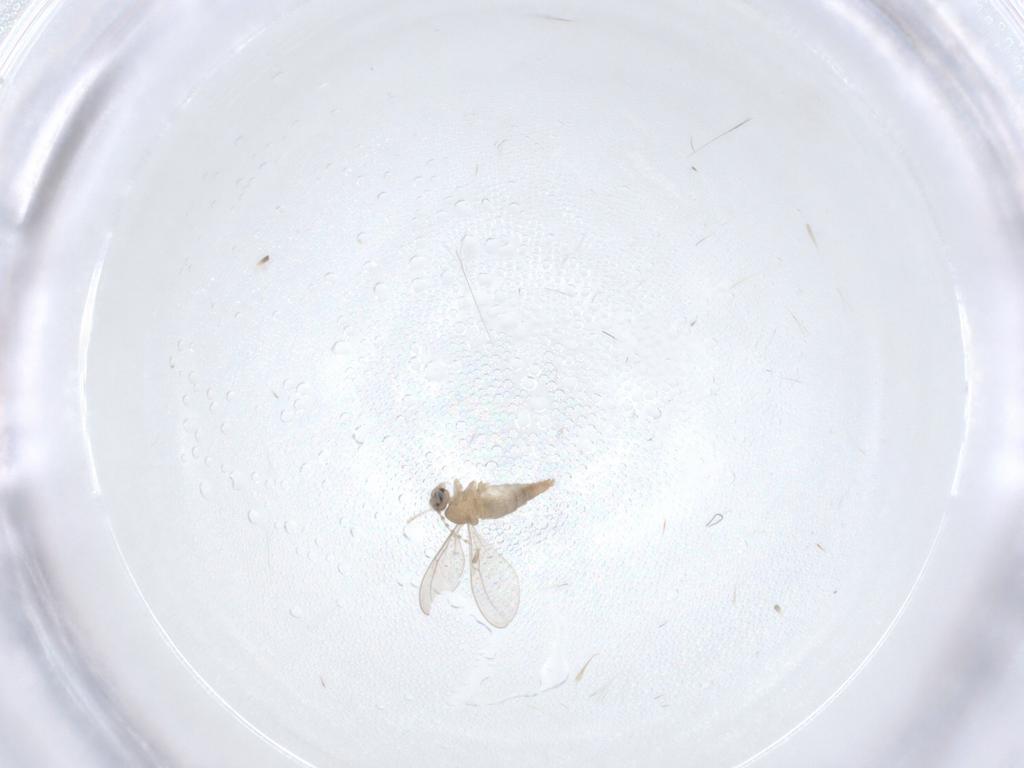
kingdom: Animalia
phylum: Arthropoda
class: Insecta
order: Diptera
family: Cecidomyiidae
